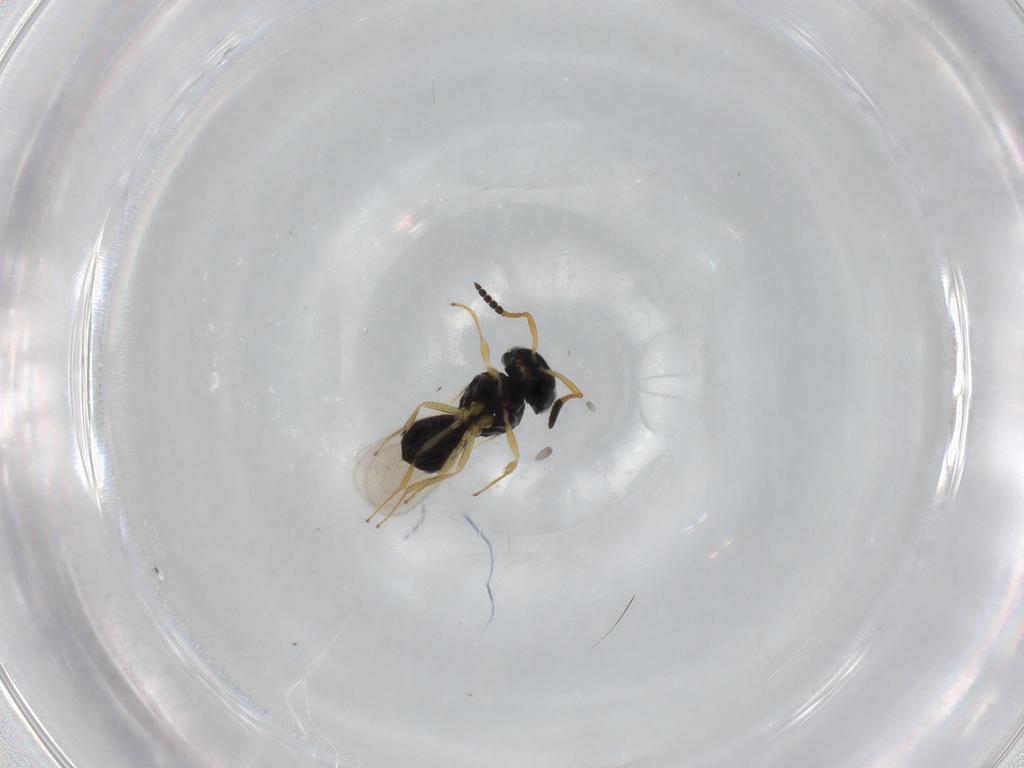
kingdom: Animalia
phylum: Arthropoda
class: Insecta
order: Hymenoptera
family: Scelionidae
